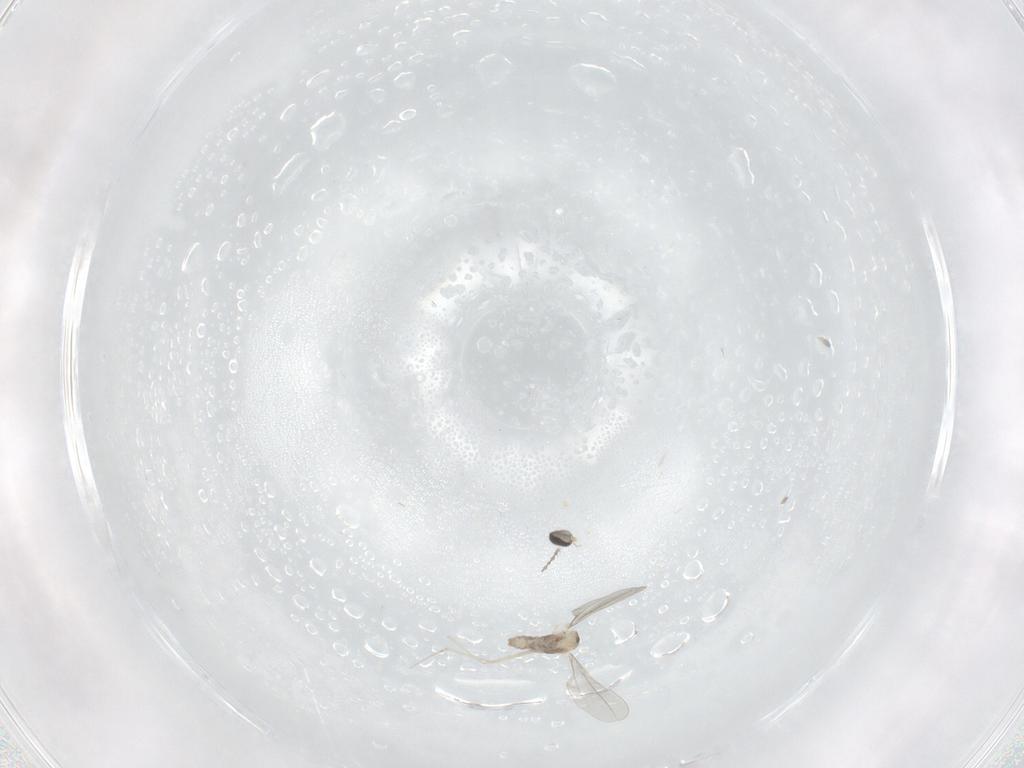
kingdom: Animalia
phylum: Arthropoda
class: Insecta
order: Diptera
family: Cecidomyiidae
